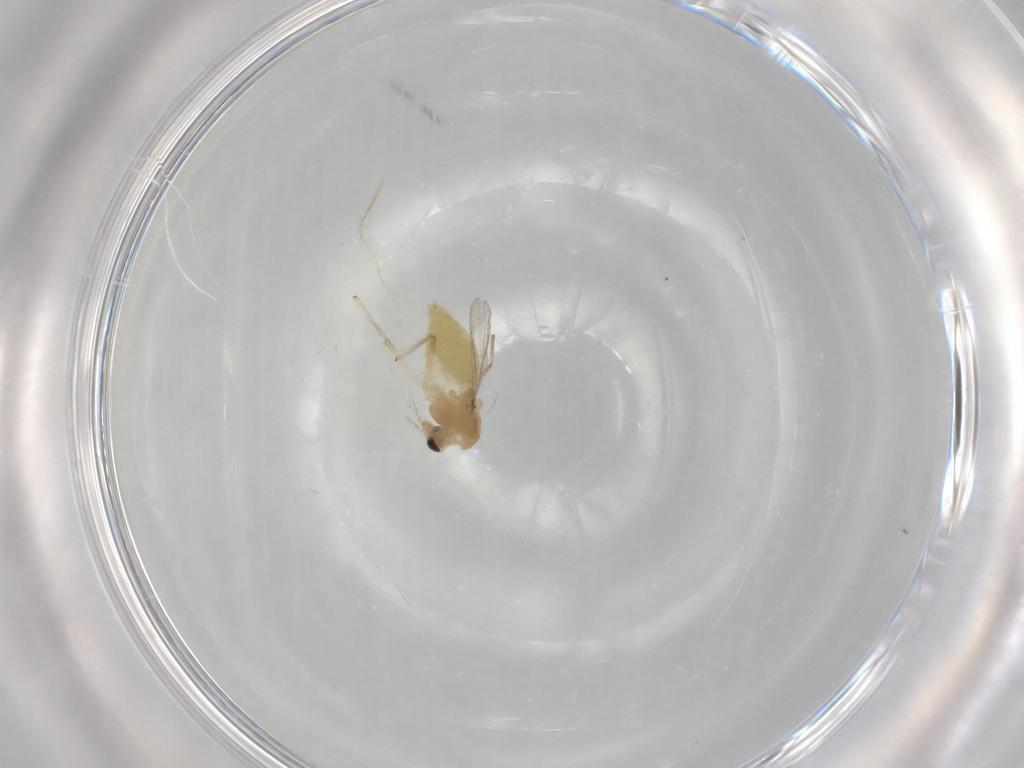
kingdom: Animalia
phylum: Arthropoda
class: Insecta
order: Diptera
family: Chironomidae
